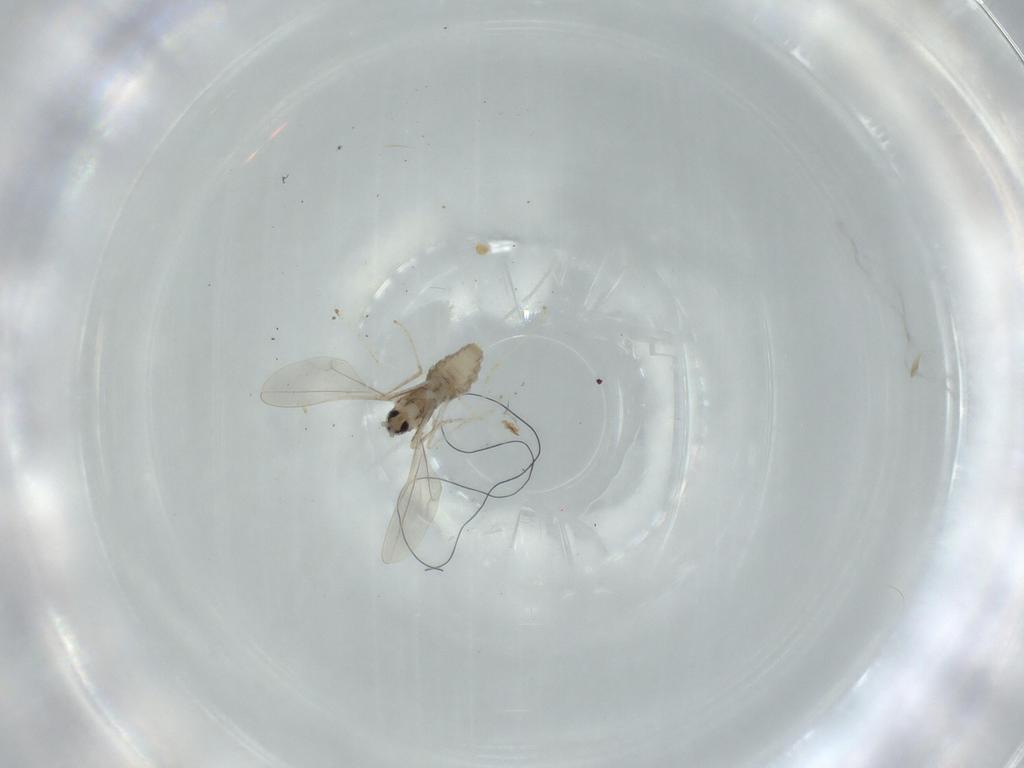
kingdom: Animalia
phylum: Arthropoda
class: Insecta
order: Diptera
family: Cecidomyiidae
